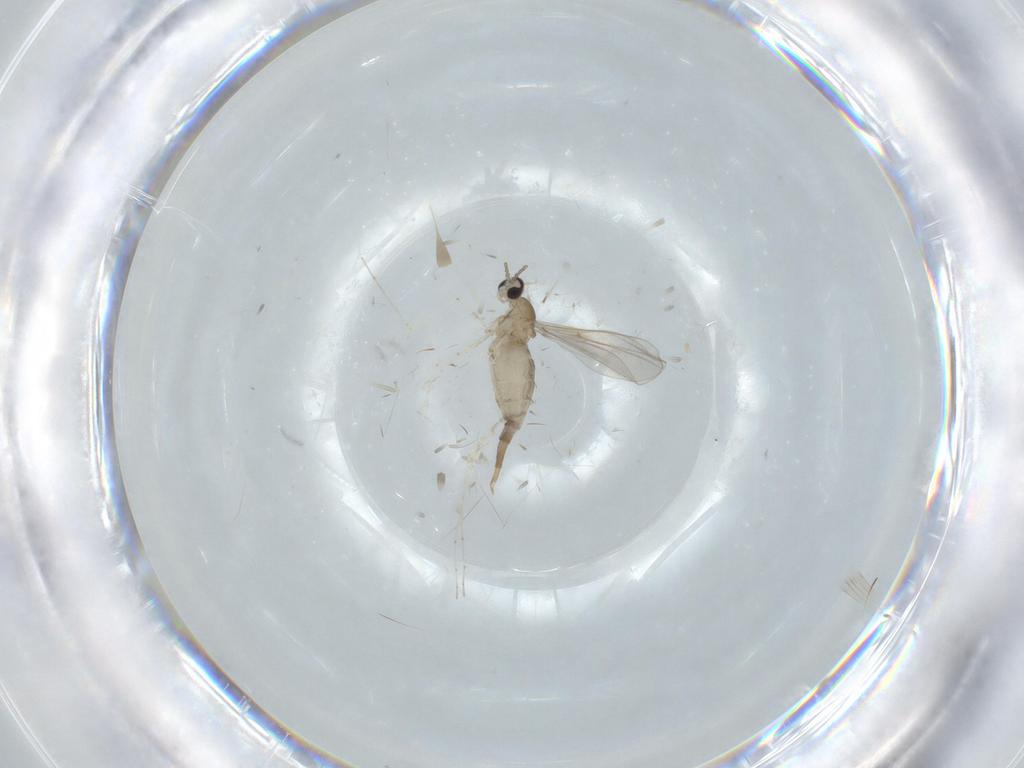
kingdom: Animalia
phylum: Arthropoda
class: Insecta
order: Diptera
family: Cecidomyiidae
